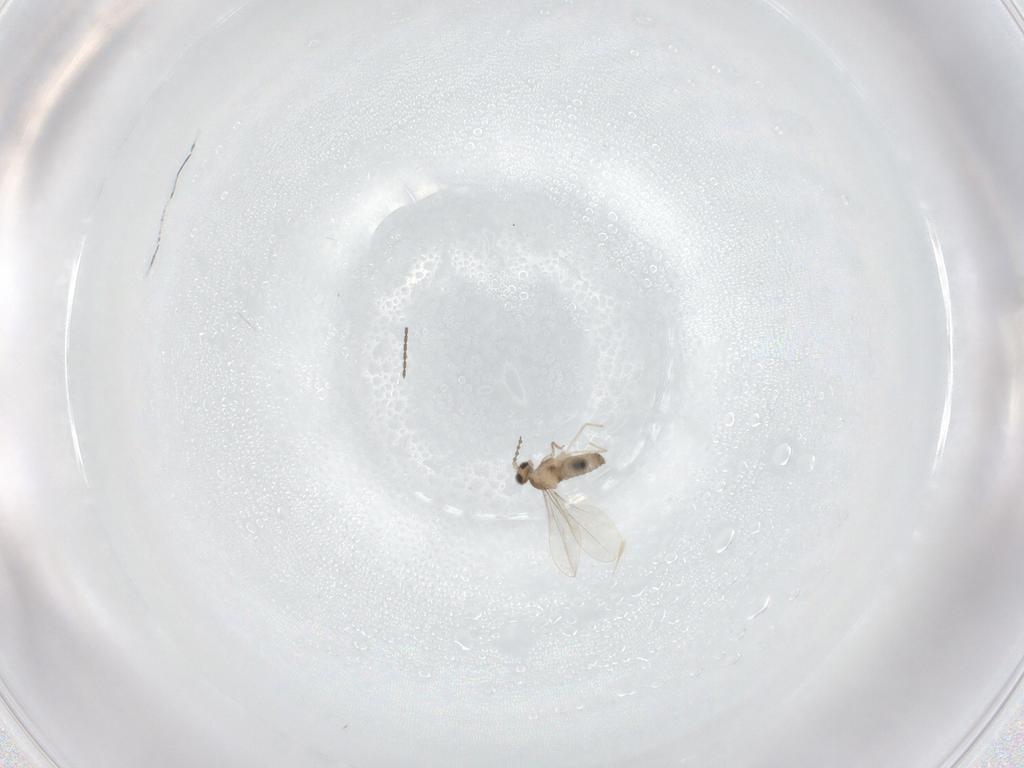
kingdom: Animalia
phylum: Arthropoda
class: Insecta
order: Diptera
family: Cecidomyiidae
